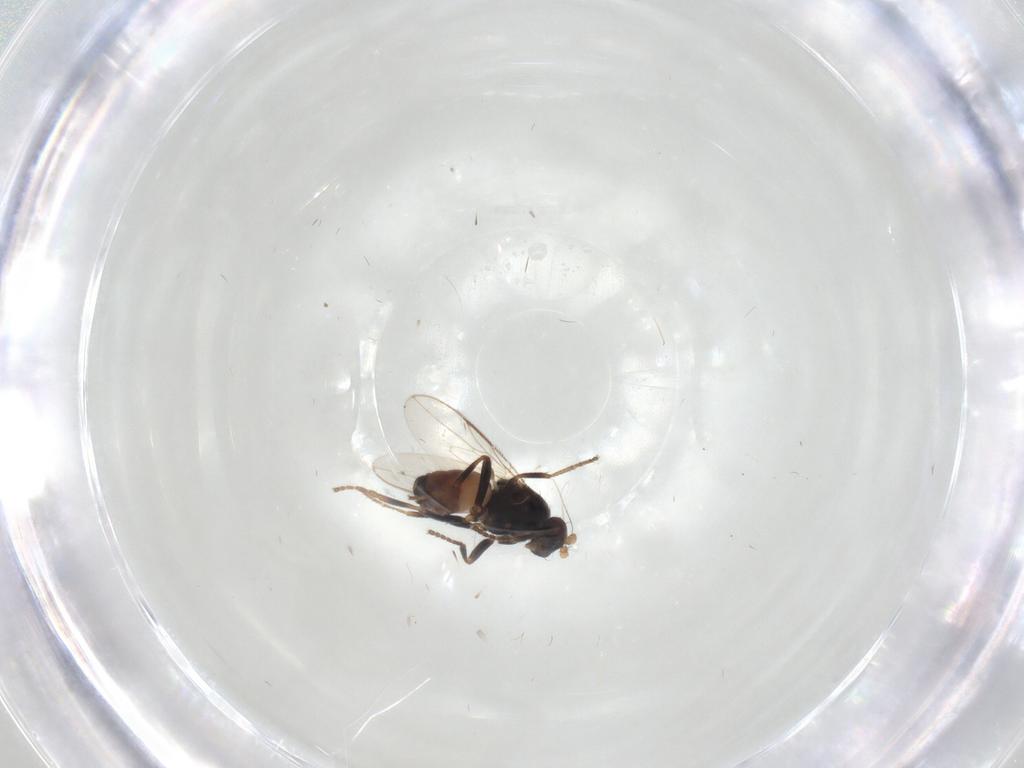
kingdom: Animalia
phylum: Arthropoda
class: Insecta
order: Diptera
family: Sphaeroceridae
